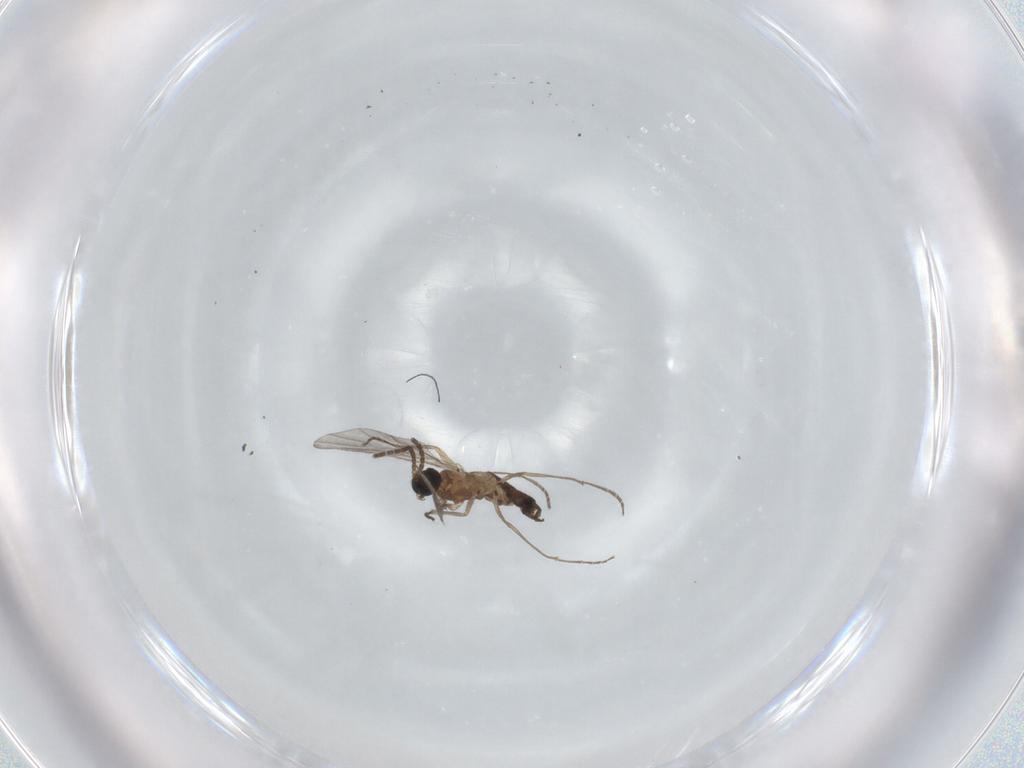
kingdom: Animalia
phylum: Arthropoda
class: Insecta
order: Diptera
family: Sciaridae
